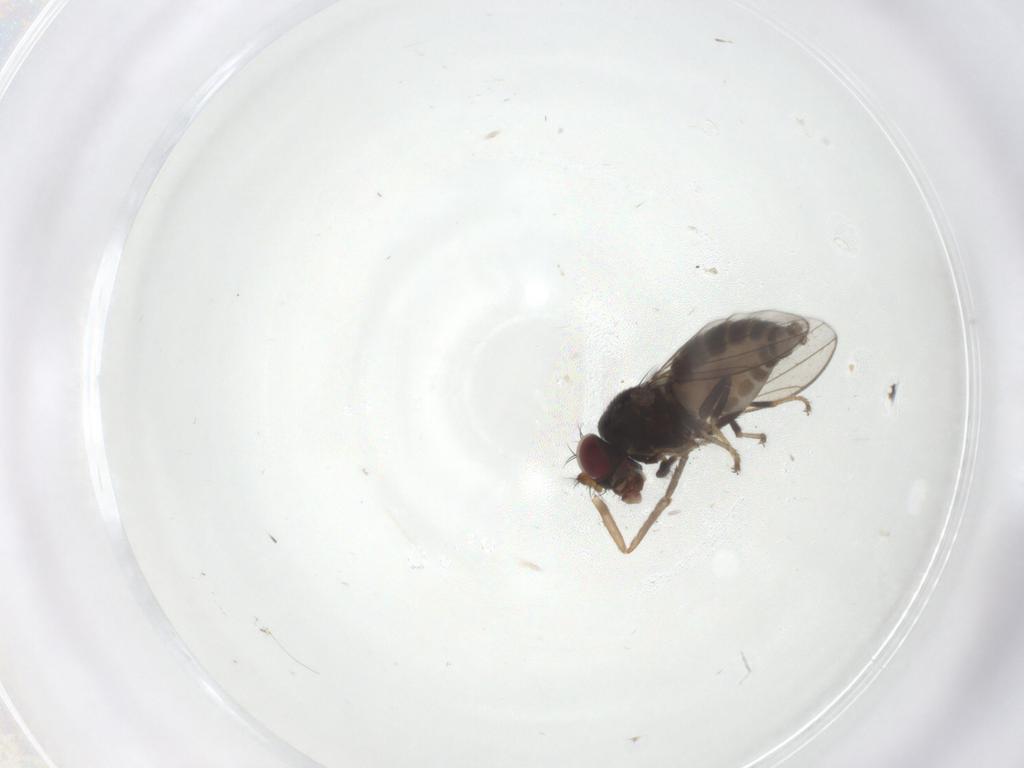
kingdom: Animalia
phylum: Arthropoda
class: Insecta
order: Diptera
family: Psychodidae
